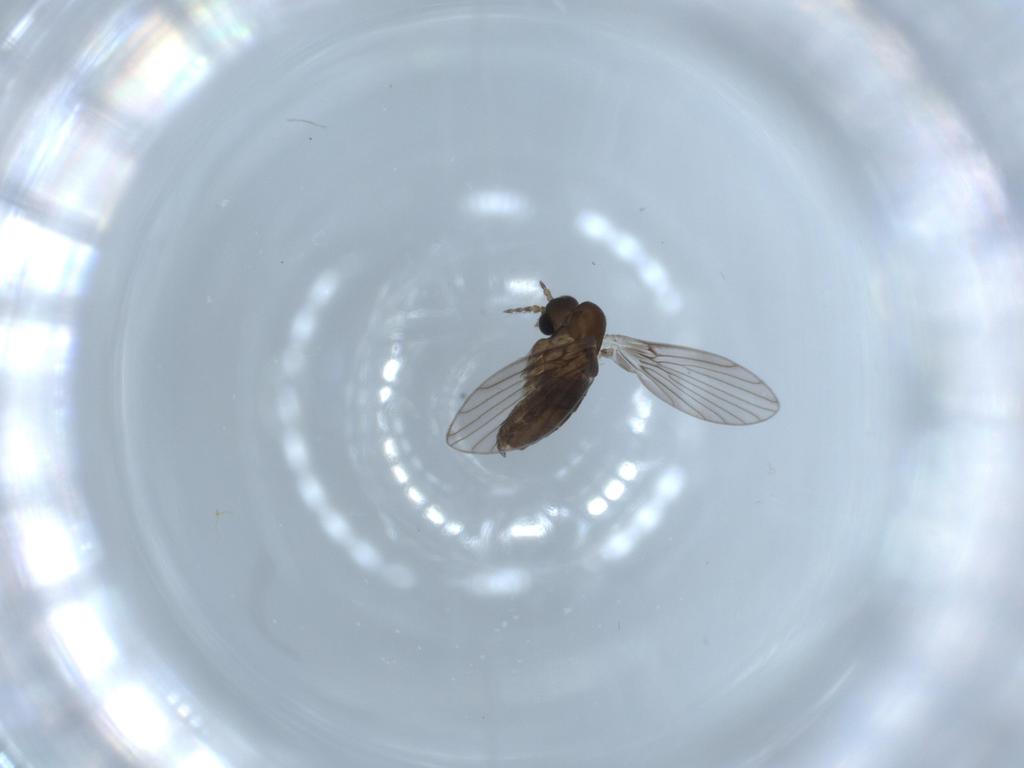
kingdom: Animalia
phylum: Arthropoda
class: Insecta
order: Diptera
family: Psychodidae
